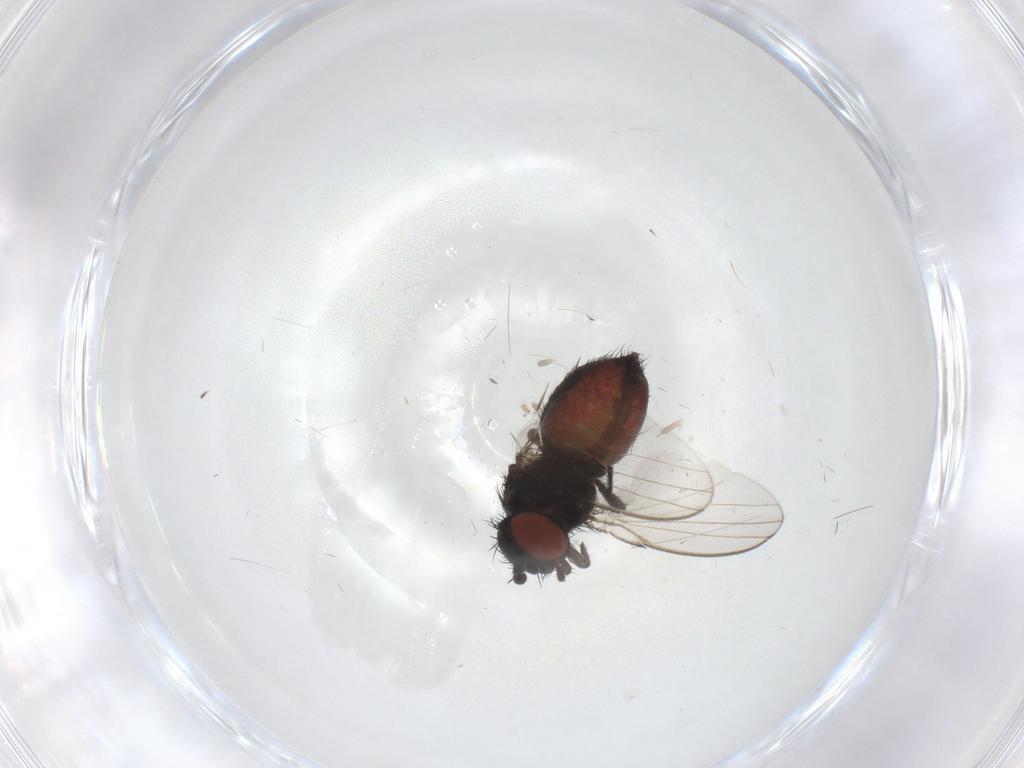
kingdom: Animalia
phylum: Arthropoda
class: Insecta
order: Diptera
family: Milichiidae
